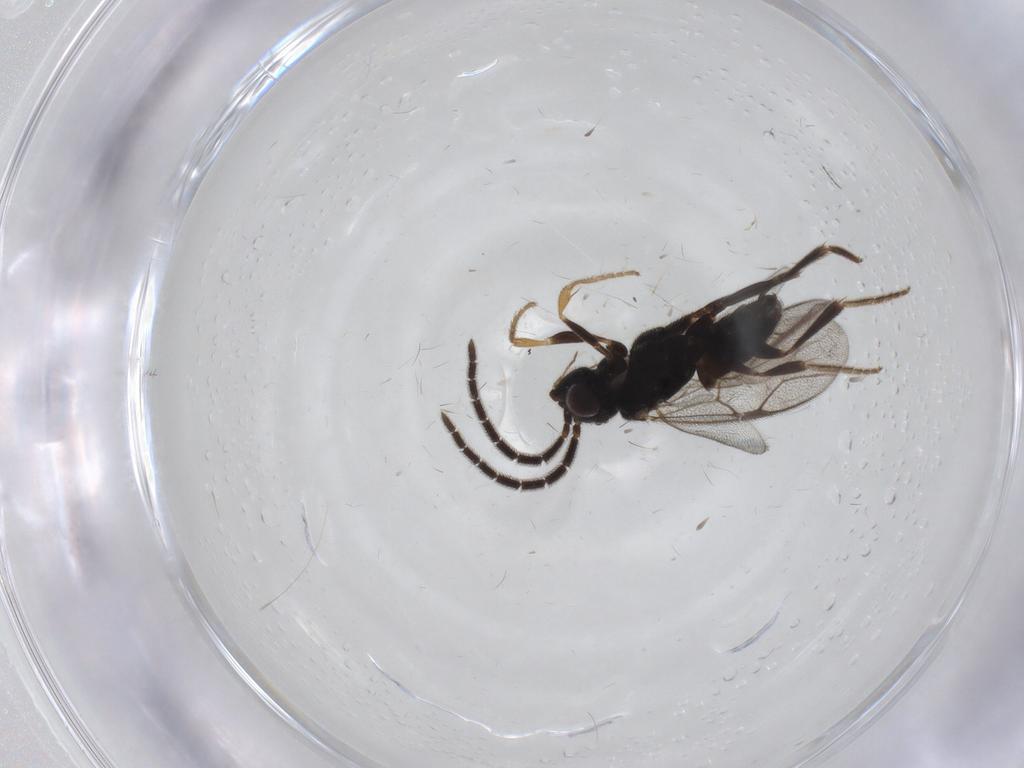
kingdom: Animalia
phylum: Arthropoda
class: Insecta
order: Hymenoptera
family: Dryinidae
